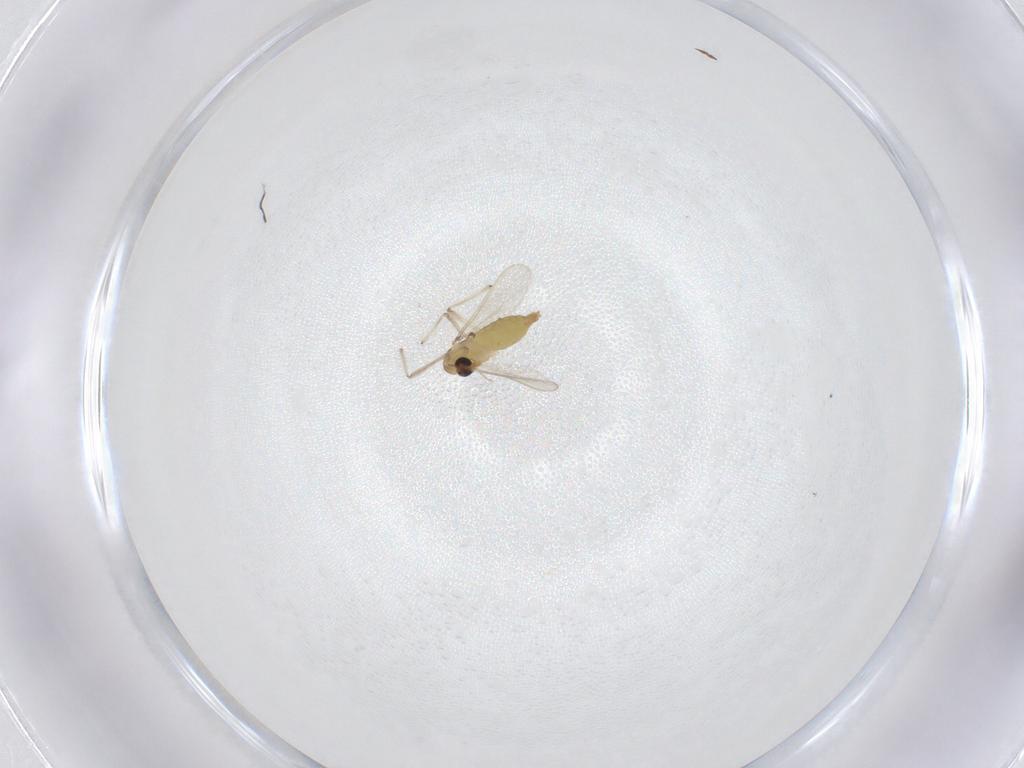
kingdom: Animalia
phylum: Arthropoda
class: Insecta
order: Diptera
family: Chironomidae
